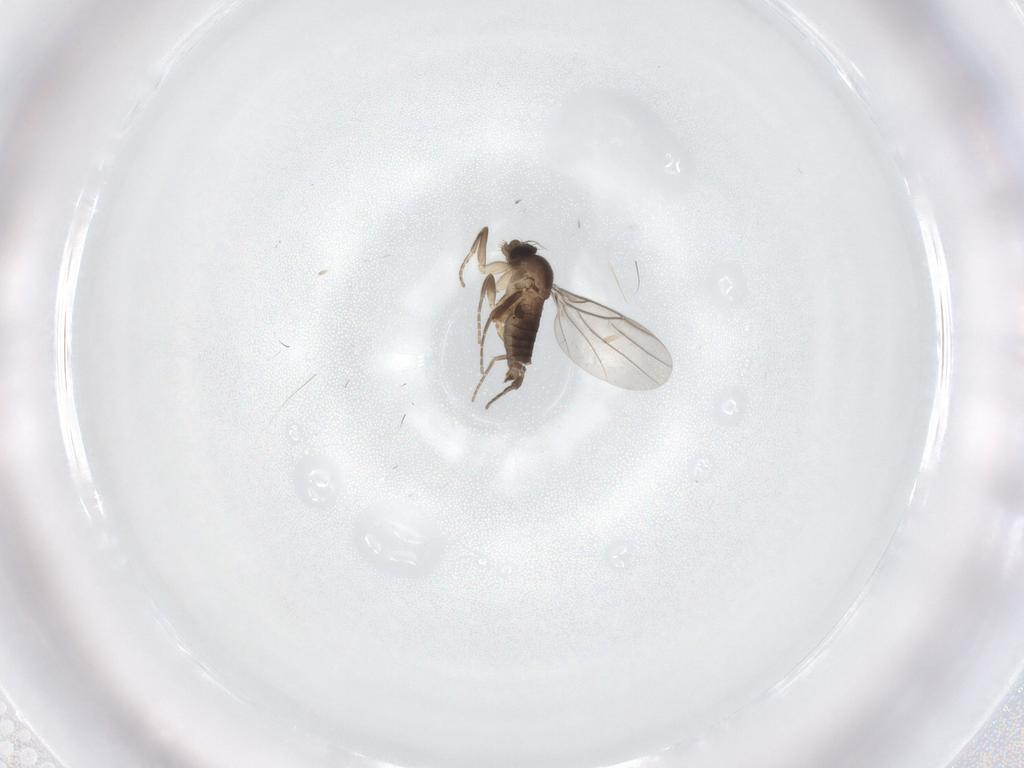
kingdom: Animalia
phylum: Arthropoda
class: Insecta
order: Diptera
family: Phoridae
